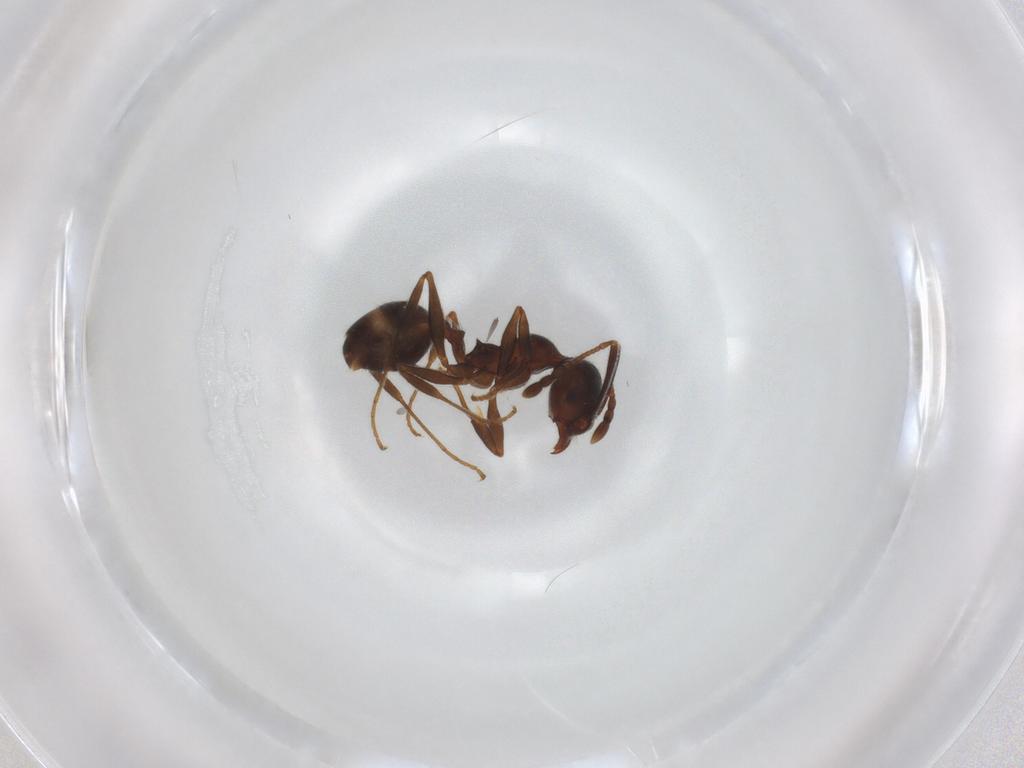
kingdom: Animalia
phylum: Arthropoda
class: Insecta
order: Hymenoptera
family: Formicidae
